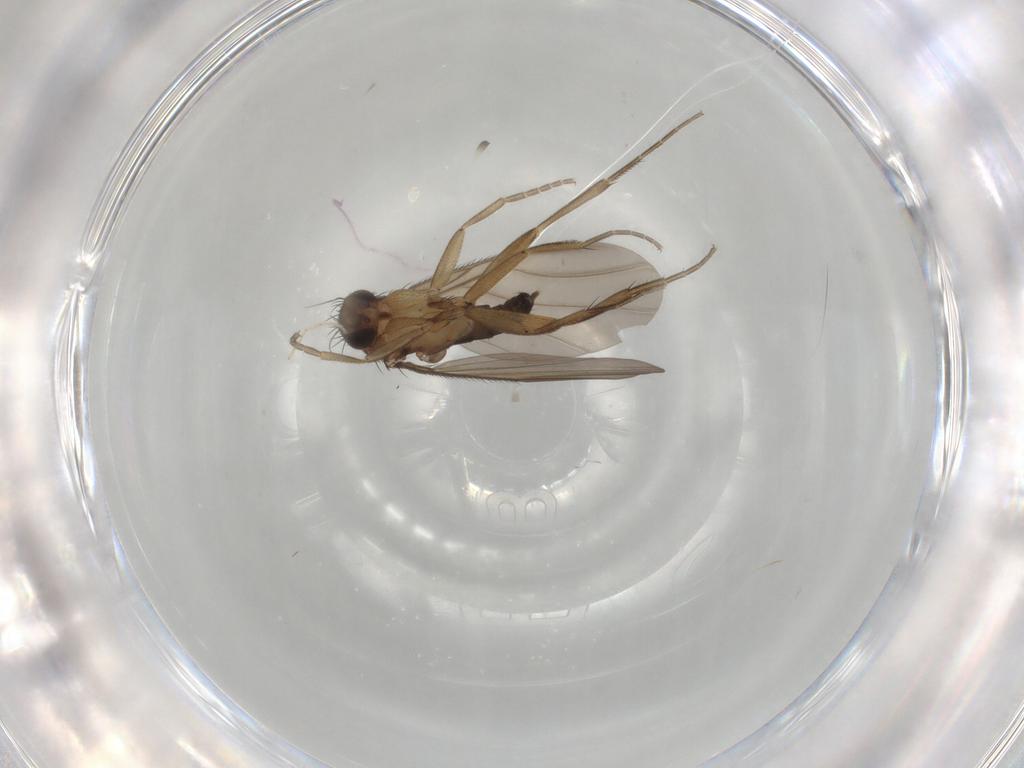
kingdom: Animalia
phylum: Arthropoda
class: Insecta
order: Diptera
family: Phoridae
